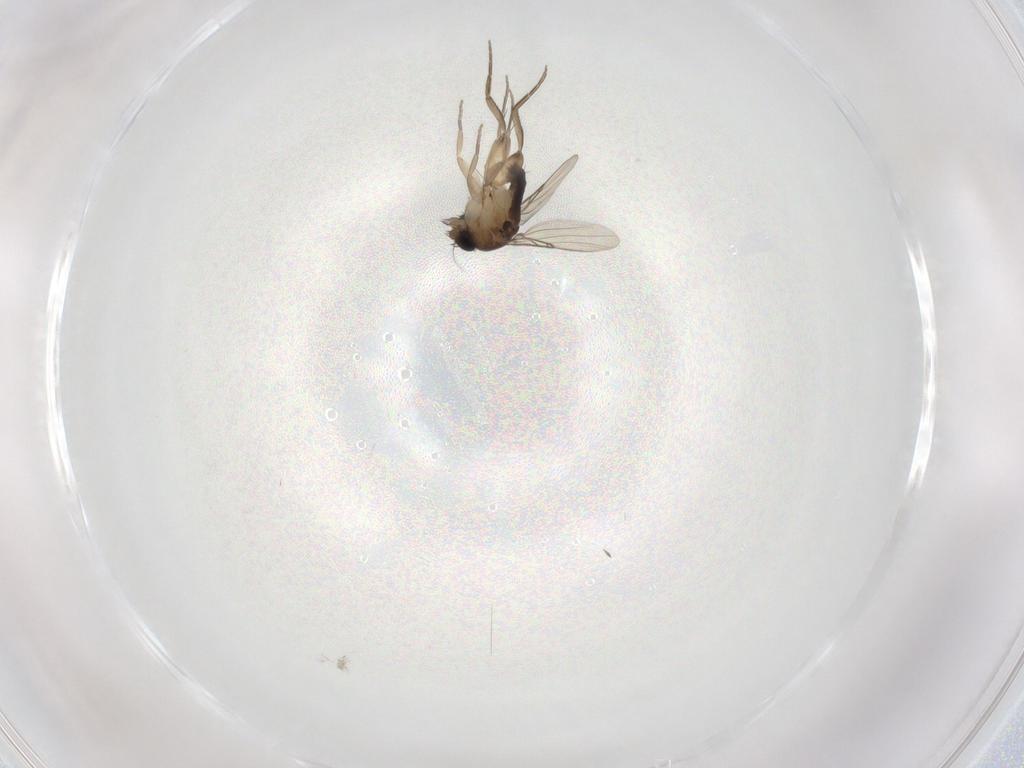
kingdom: Animalia
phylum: Arthropoda
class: Insecta
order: Diptera
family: Phoridae
